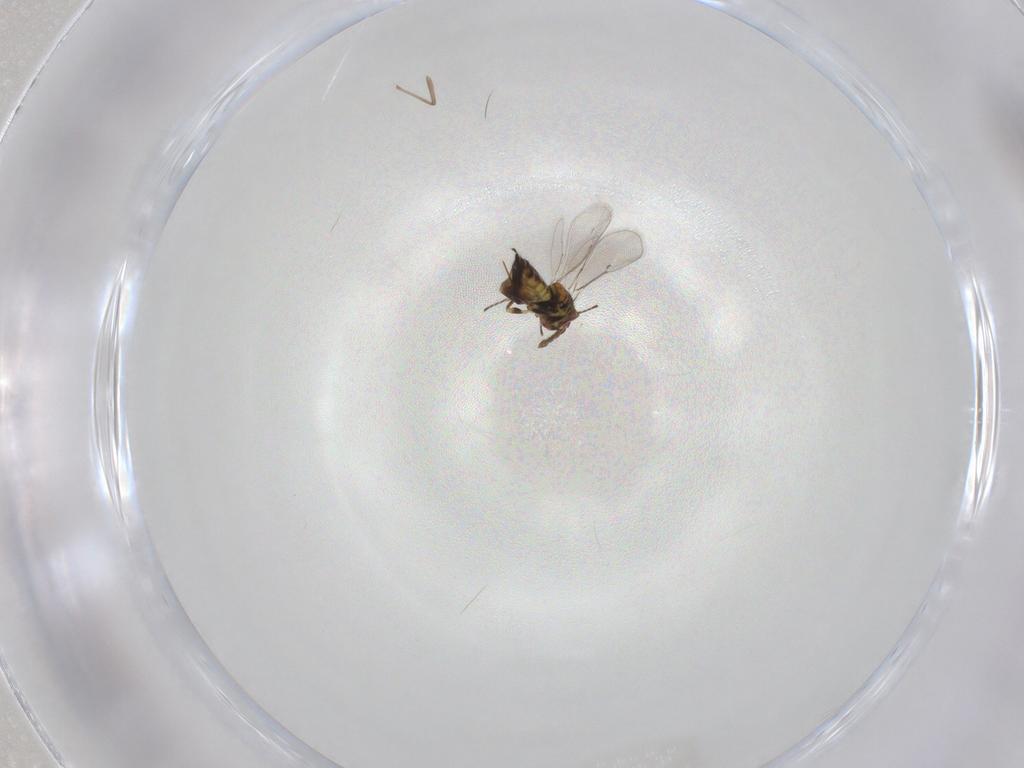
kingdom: Animalia
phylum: Arthropoda
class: Insecta
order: Hymenoptera
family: Eulophidae
